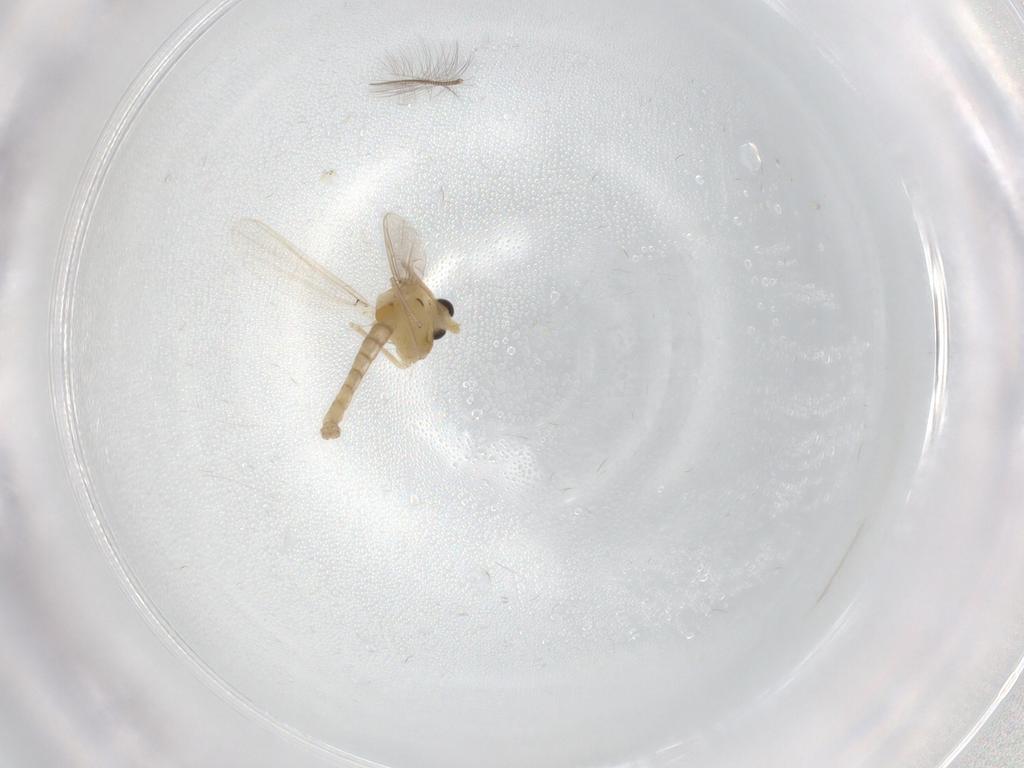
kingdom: Animalia
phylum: Arthropoda
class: Insecta
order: Diptera
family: Chironomidae
